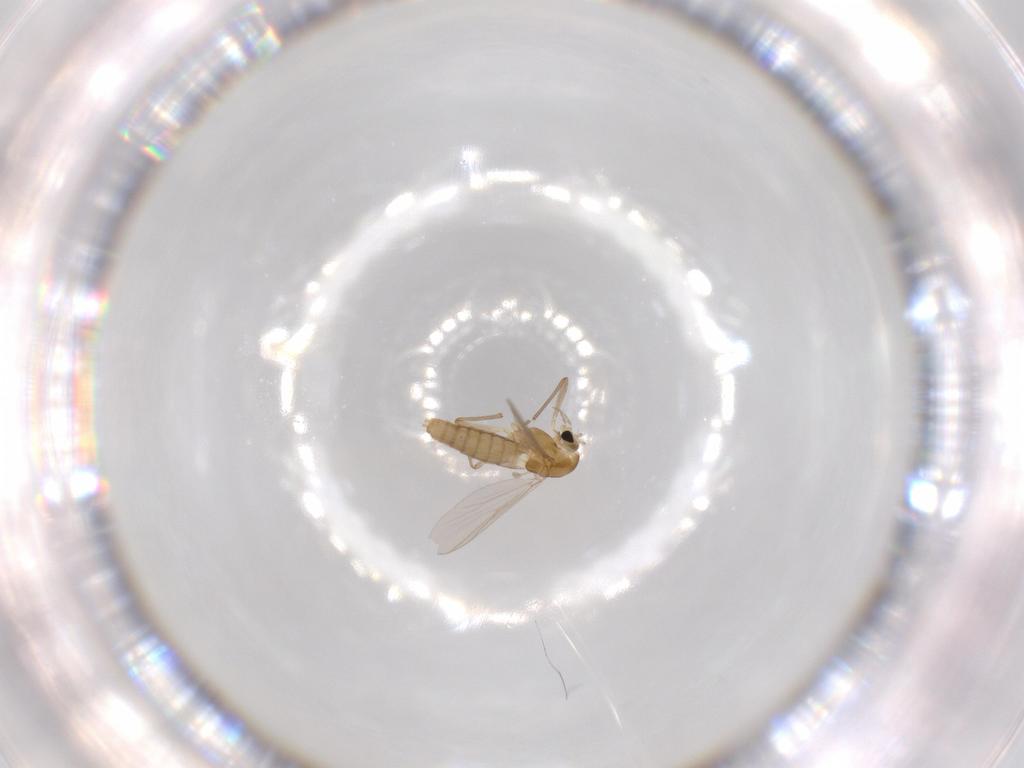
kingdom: Animalia
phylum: Arthropoda
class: Insecta
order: Diptera
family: Chironomidae
